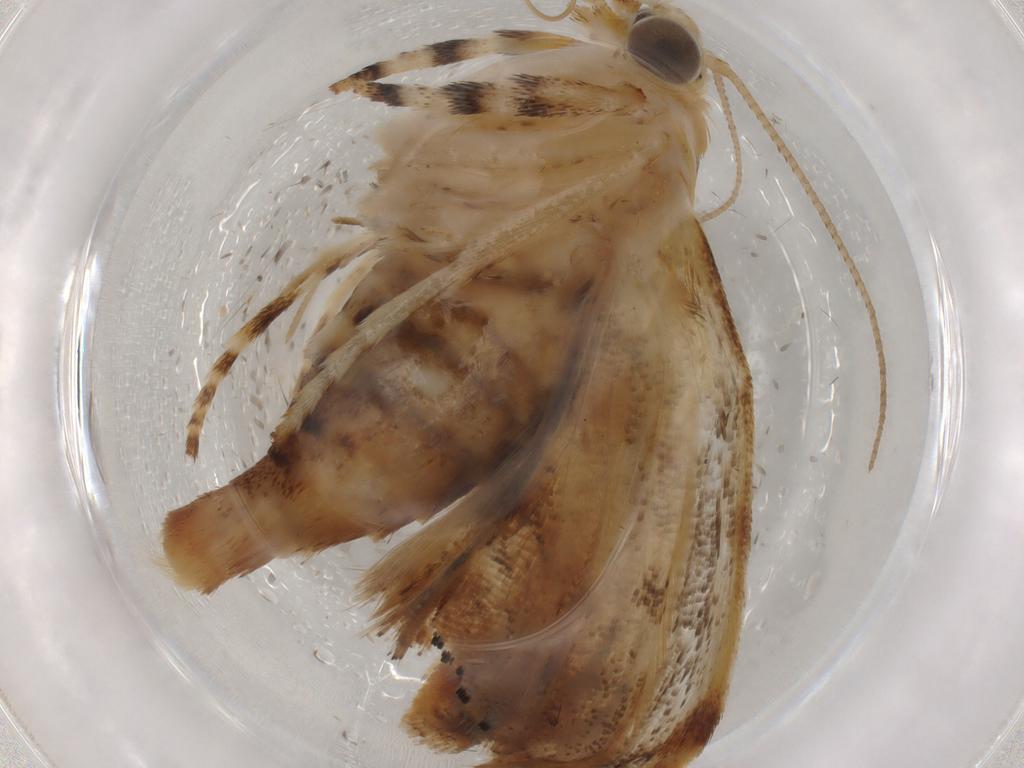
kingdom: Animalia
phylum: Arthropoda
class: Insecta
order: Lepidoptera
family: Crambidae
